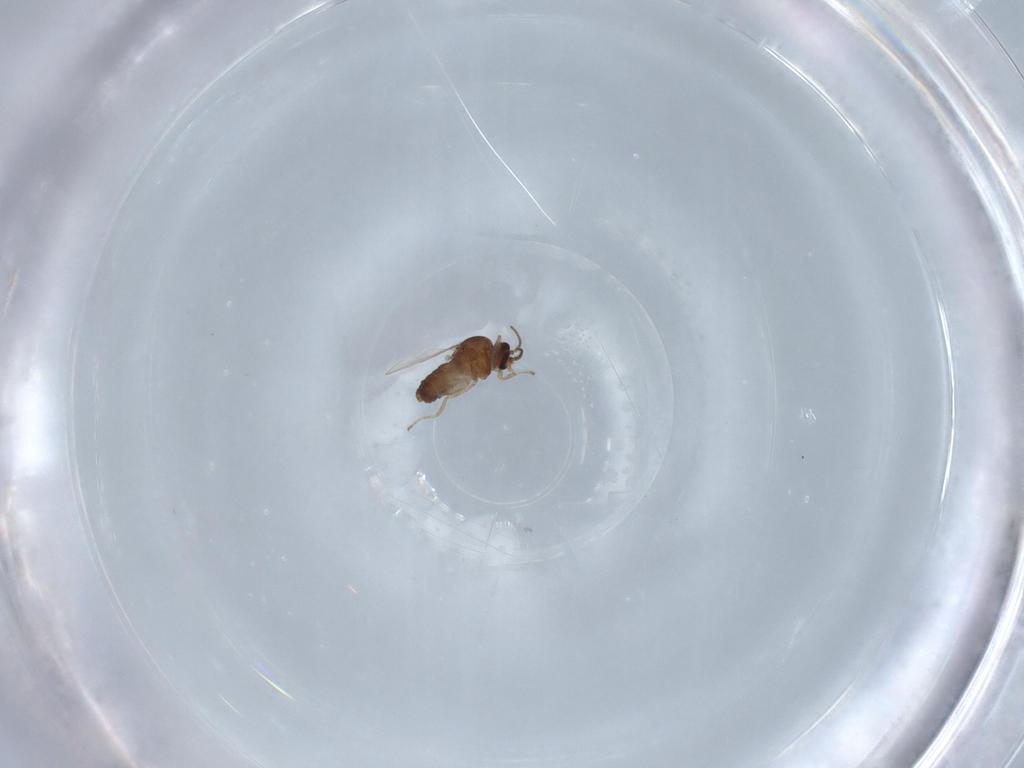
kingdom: Animalia
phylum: Arthropoda
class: Insecta
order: Diptera
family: Ceratopogonidae
